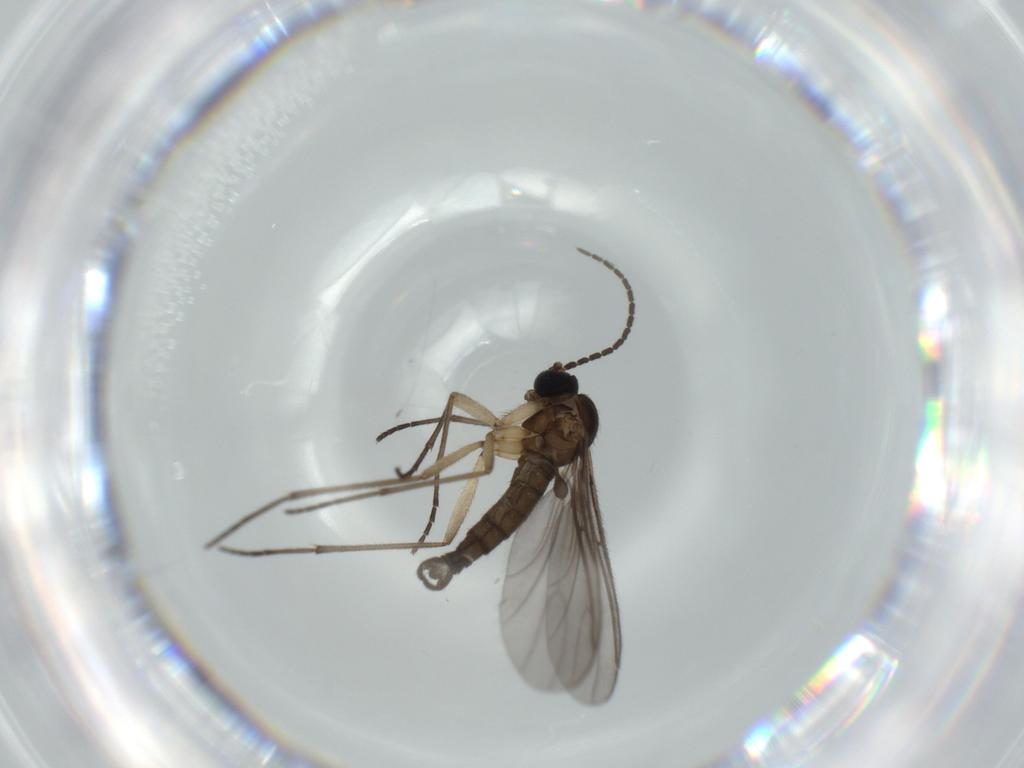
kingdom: Animalia
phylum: Arthropoda
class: Insecta
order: Diptera
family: Sciaridae
